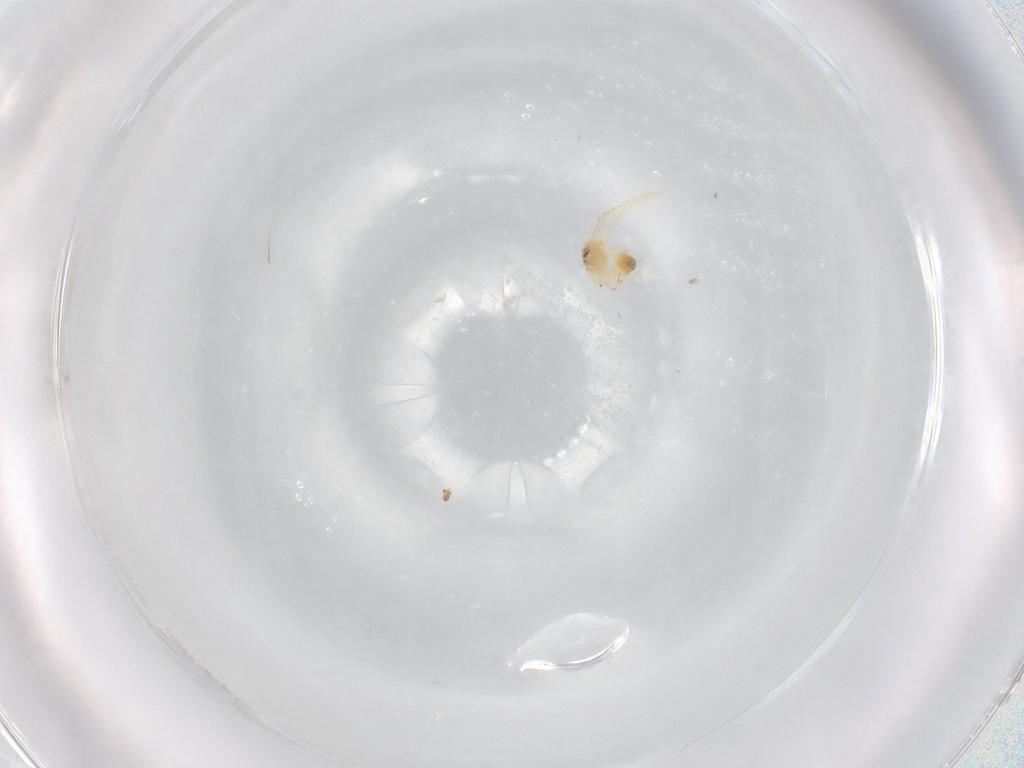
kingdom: Animalia
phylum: Arthropoda
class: Insecta
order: Hemiptera
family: Aleyrodidae
